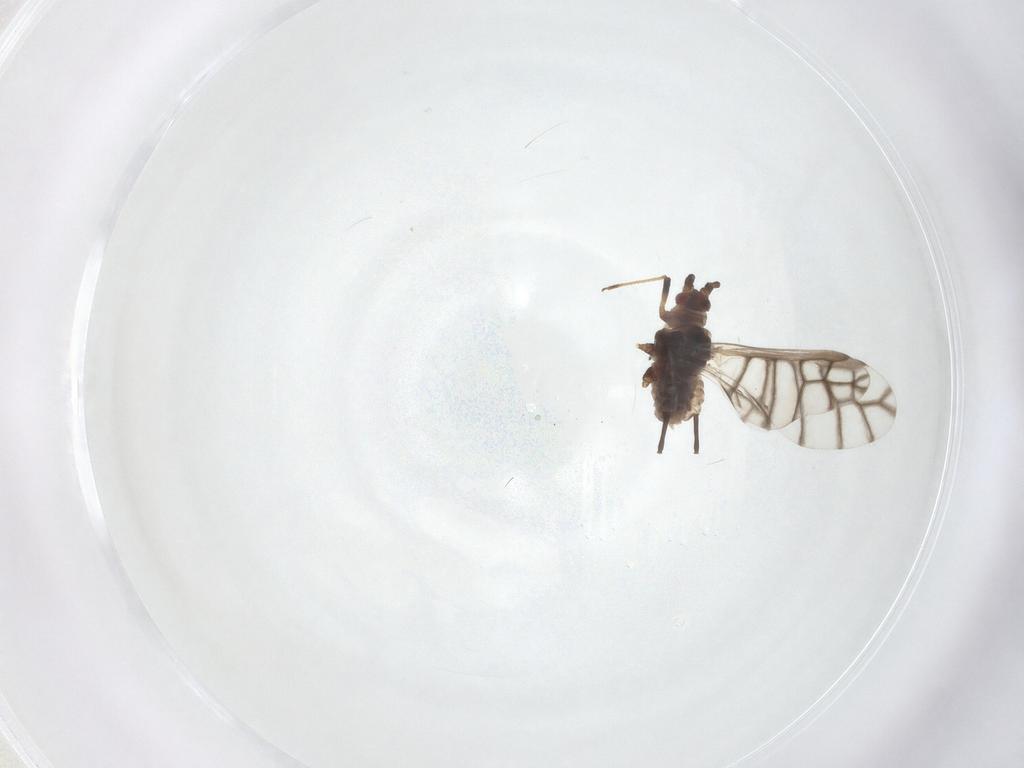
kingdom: Animalia
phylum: Arthropoda
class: Insecta
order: Hemiptera
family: Aphididae
